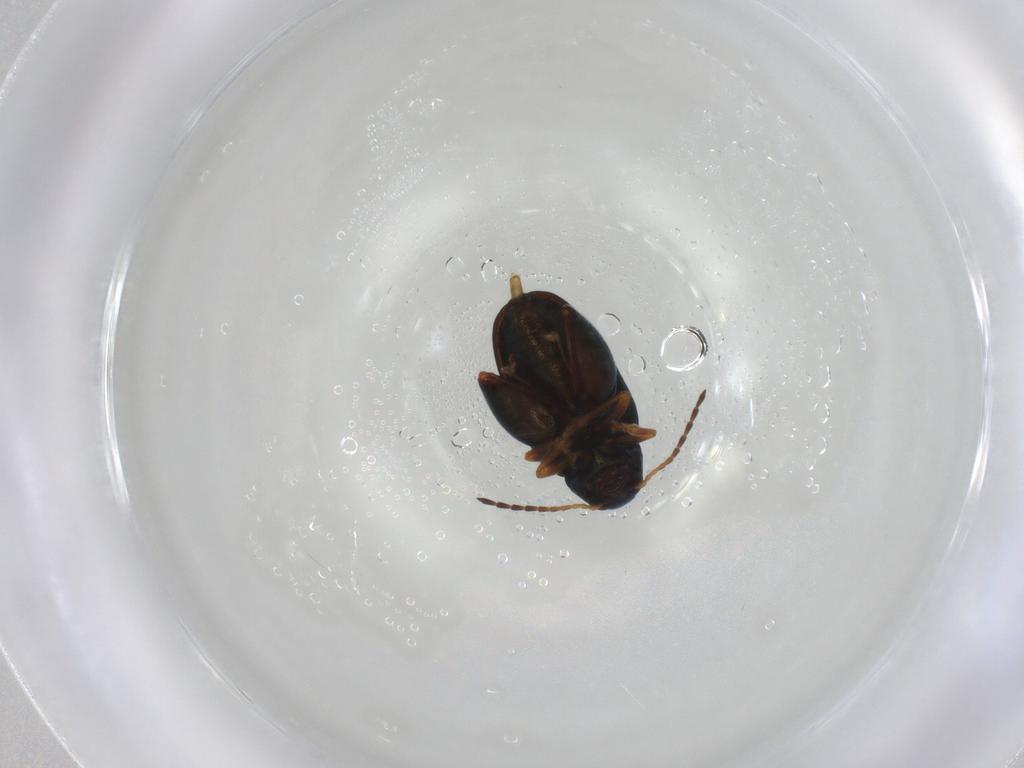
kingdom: Animalia
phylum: Arthropoda
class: Insecta
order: Coleoptera
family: Chrysomelidae
